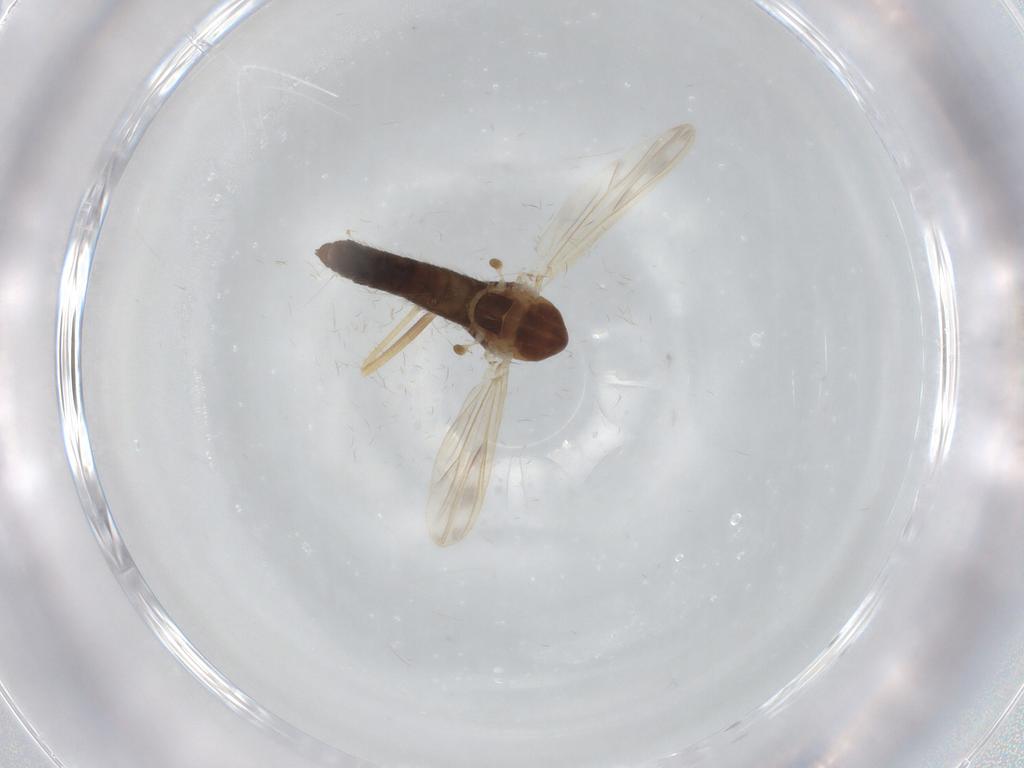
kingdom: Animalia
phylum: Arthropoda
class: Insecta
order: Diptera
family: Chironomidae
